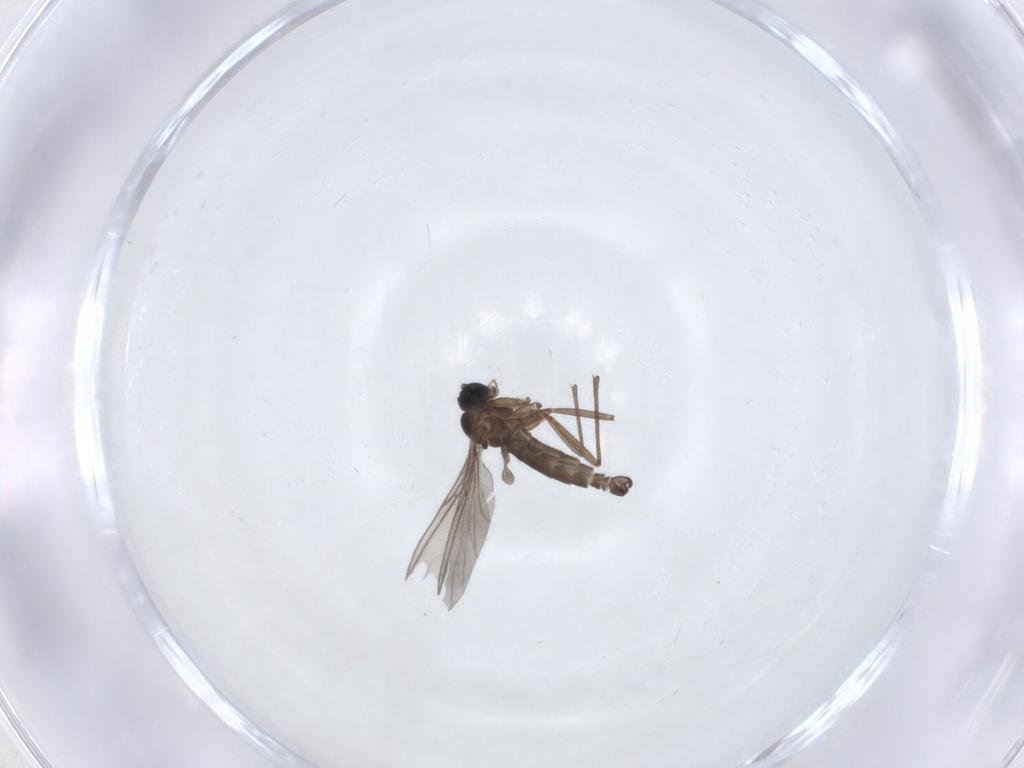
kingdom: Animalia
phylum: Arthropoda
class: Insecta
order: Diptera
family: Sciaridae
